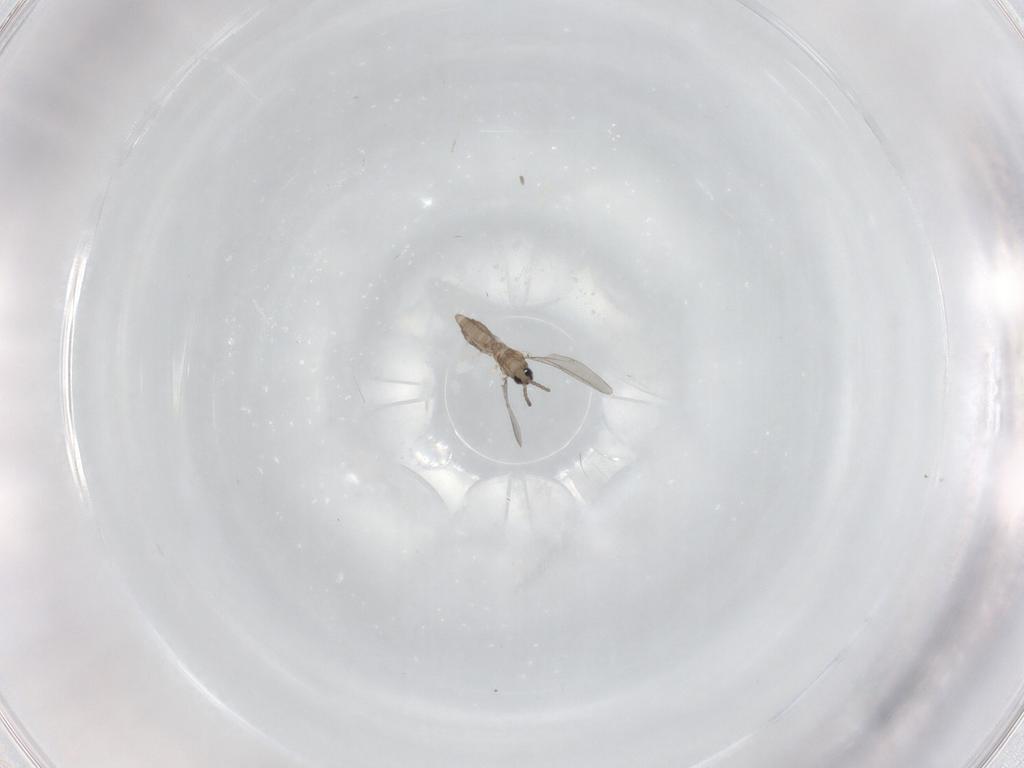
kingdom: Animalia
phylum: Arthropoda
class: Insecta
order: Diptera
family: Cecidomyiidae
